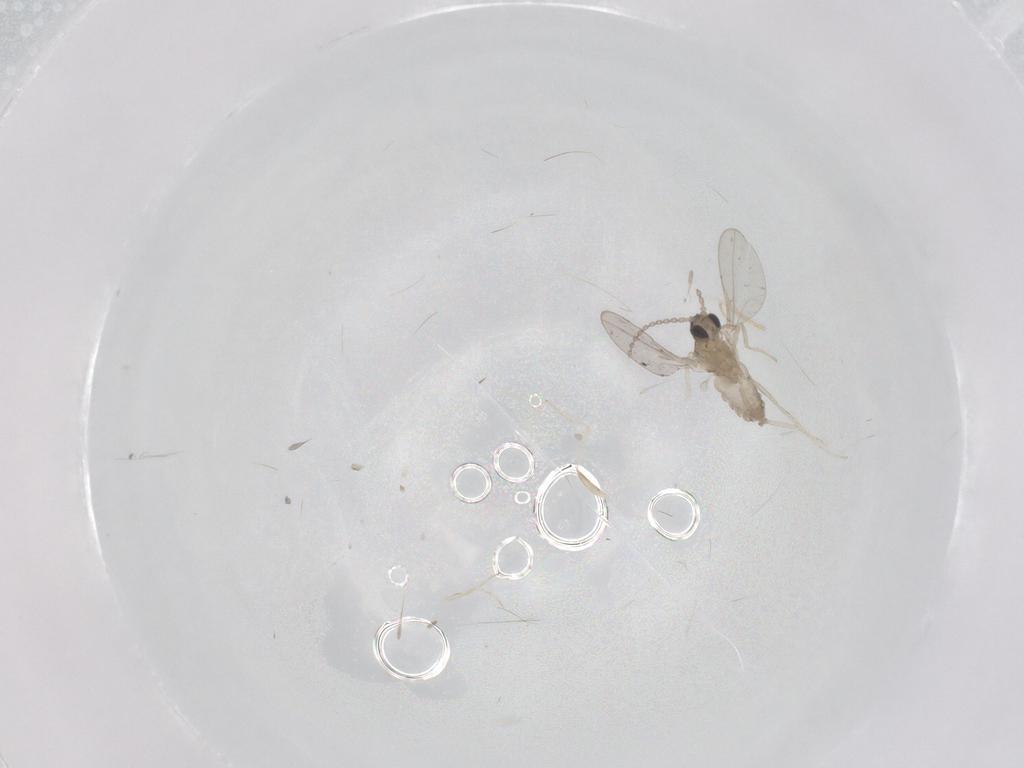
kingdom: Animalia
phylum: Arthropoda
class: Insecta
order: Diptera
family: Cecidomyiidae
